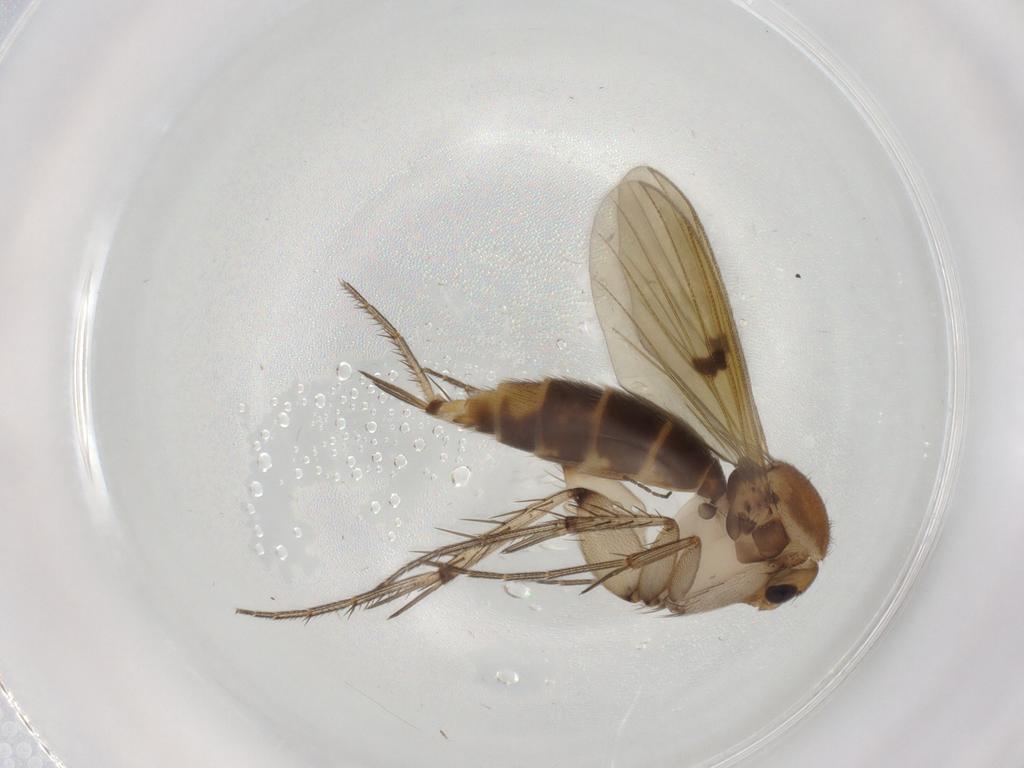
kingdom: Animalia
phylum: Arthropoda
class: Insecta
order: Diptera
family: Mycetophilidae
